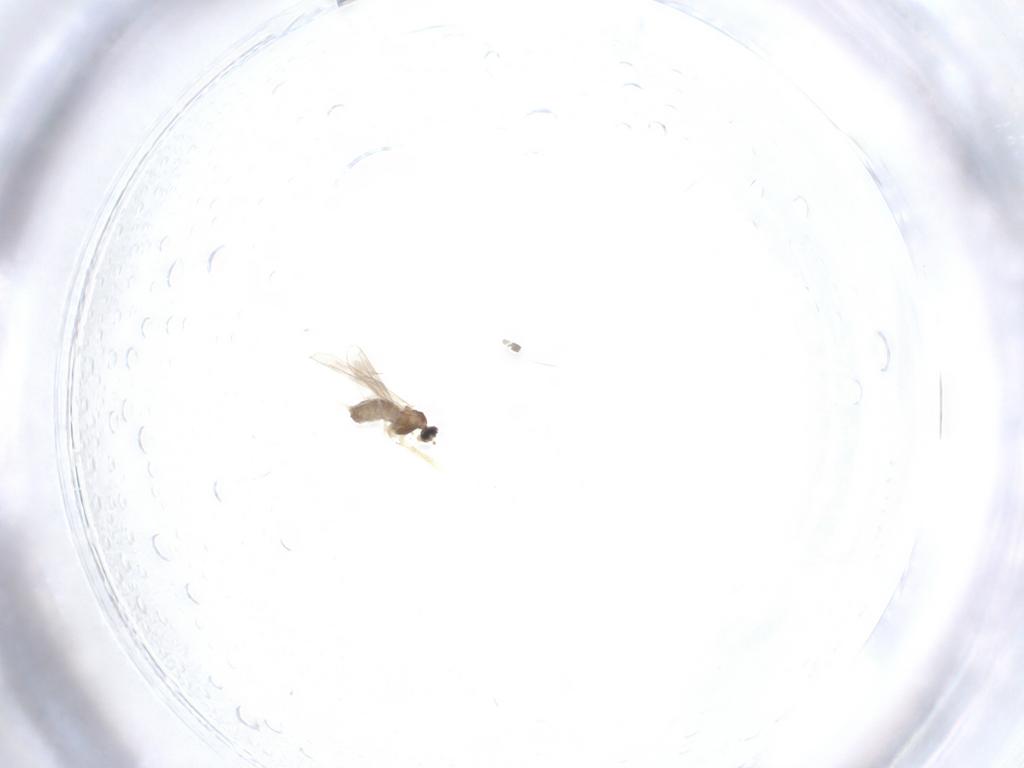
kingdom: Animalia
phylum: Arthropoda
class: Insecta
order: Diptera
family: Cecidomyiidae
